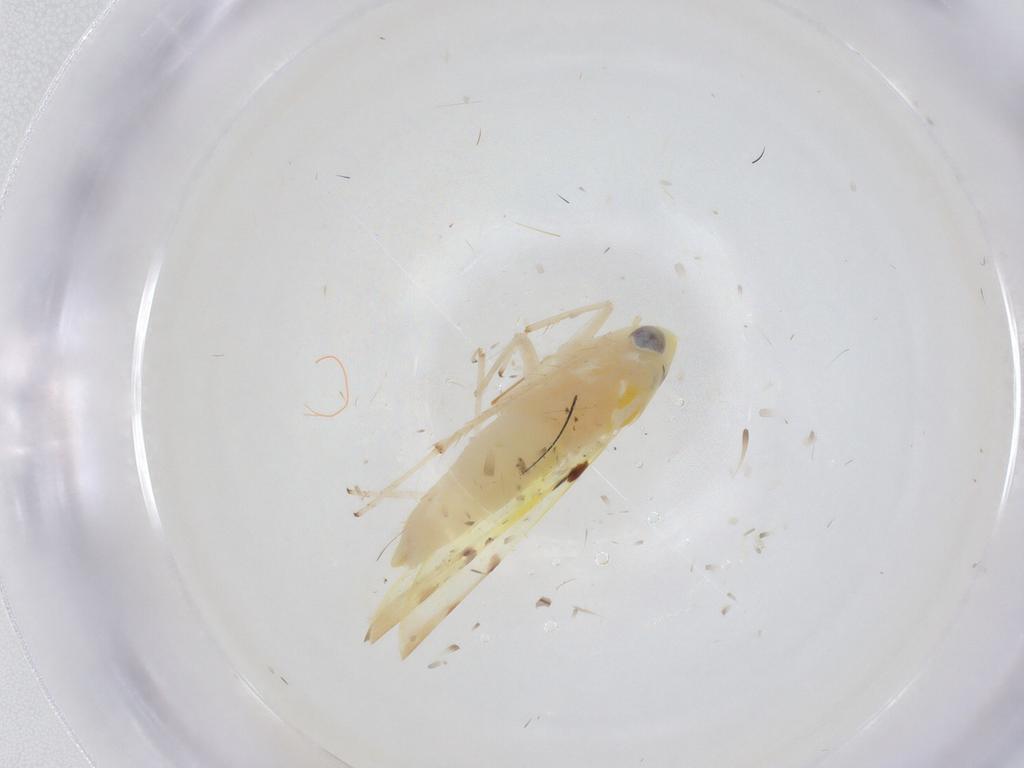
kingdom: Animalia
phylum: Arthropoda
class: Insecta
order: Hemiptera
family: Cicadellidae
